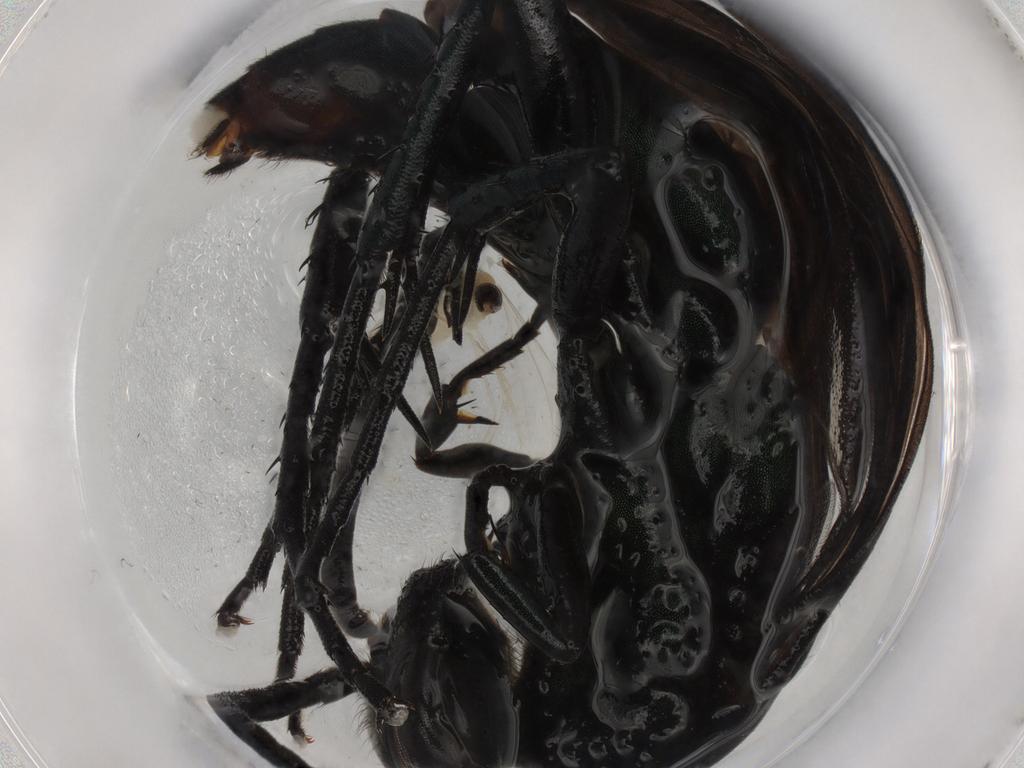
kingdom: Animalia
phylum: Arthropoda
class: Insecta
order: Hymenoptera
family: Pompilidae
